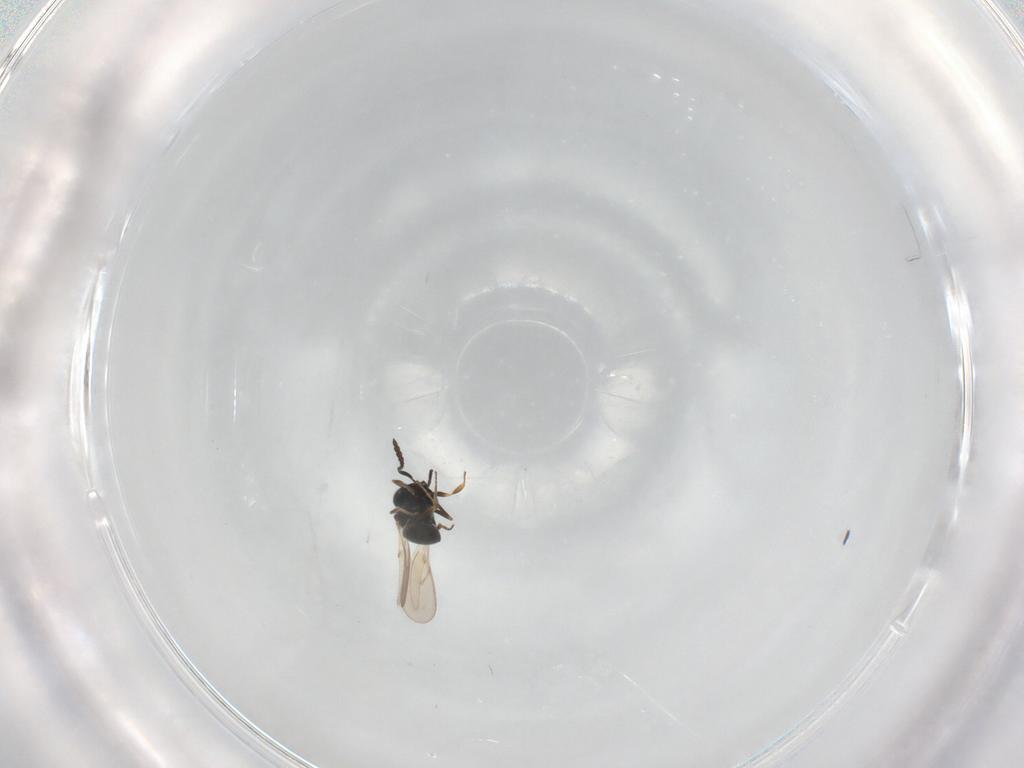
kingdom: Animalia
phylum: Arthropoda
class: Insecta
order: Hymenoptera
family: Scelionidae
